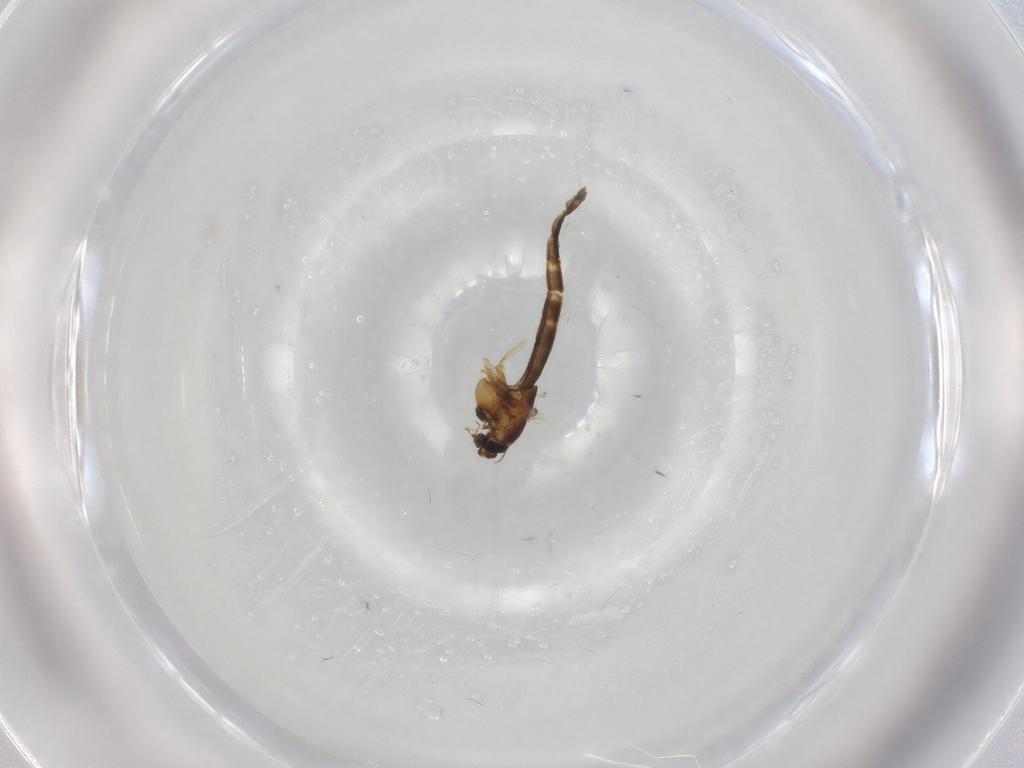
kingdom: Animalia
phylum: Arthropoda
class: Insecta
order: Diptera
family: Chironomidae
